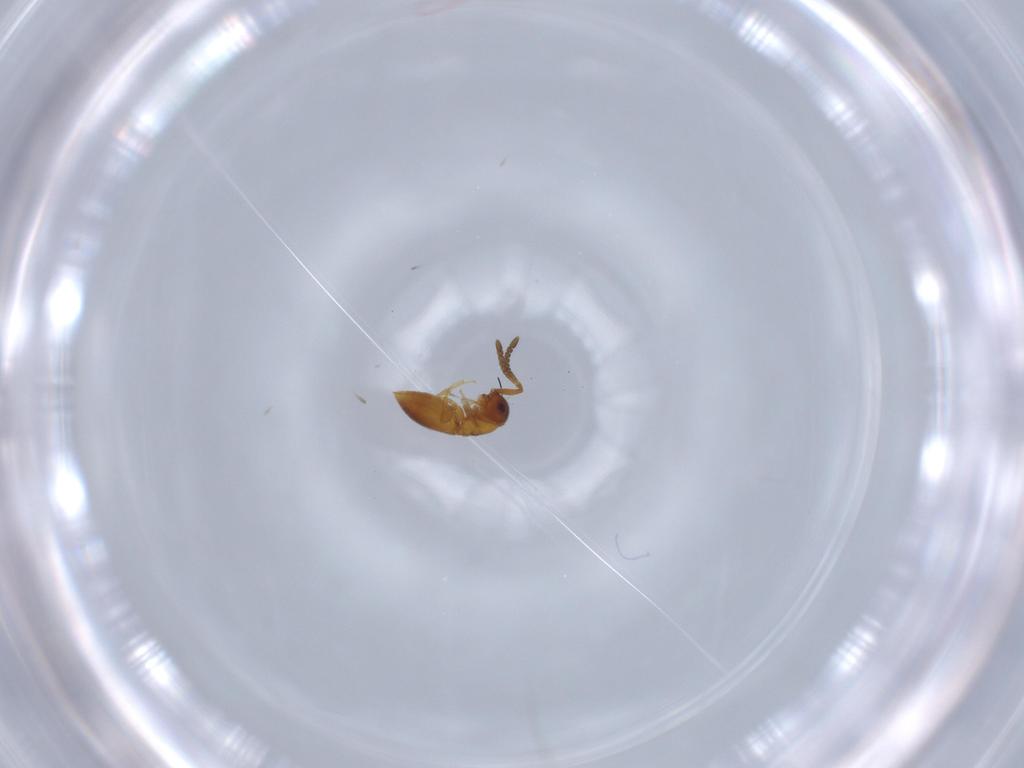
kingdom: Animalia
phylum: Arthropoda
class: Insecta
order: Hymenoptera
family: Megaspilidae
